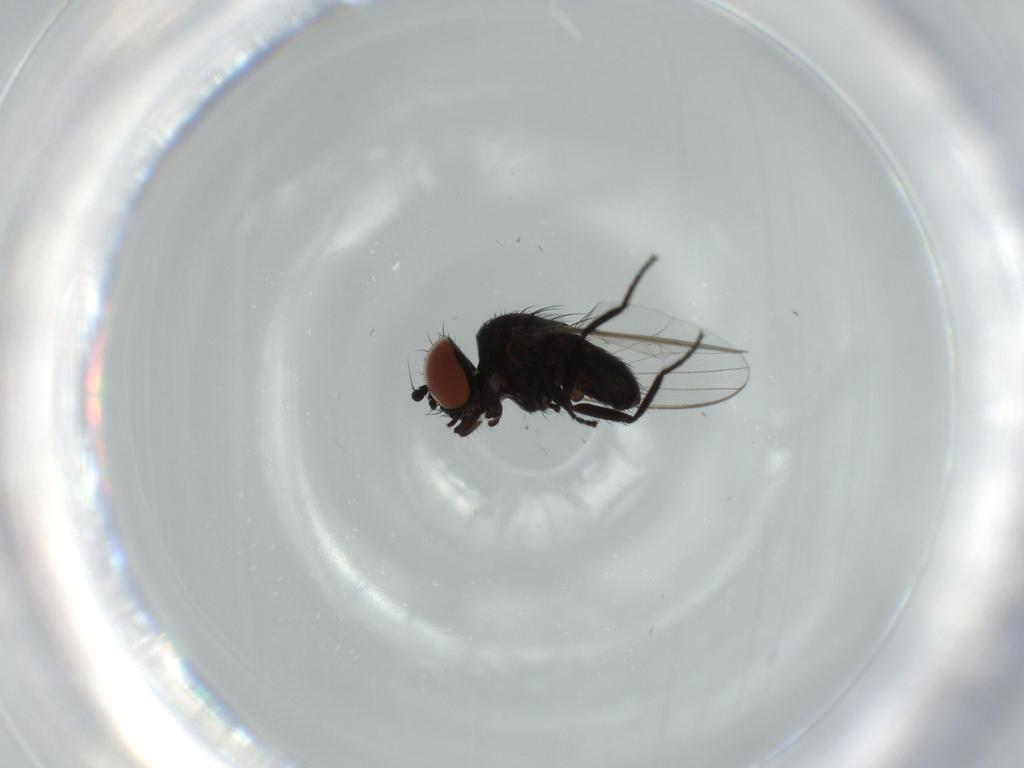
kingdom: Animalia
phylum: Arthropoda
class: Insecta
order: Diptera
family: Milichiidae
